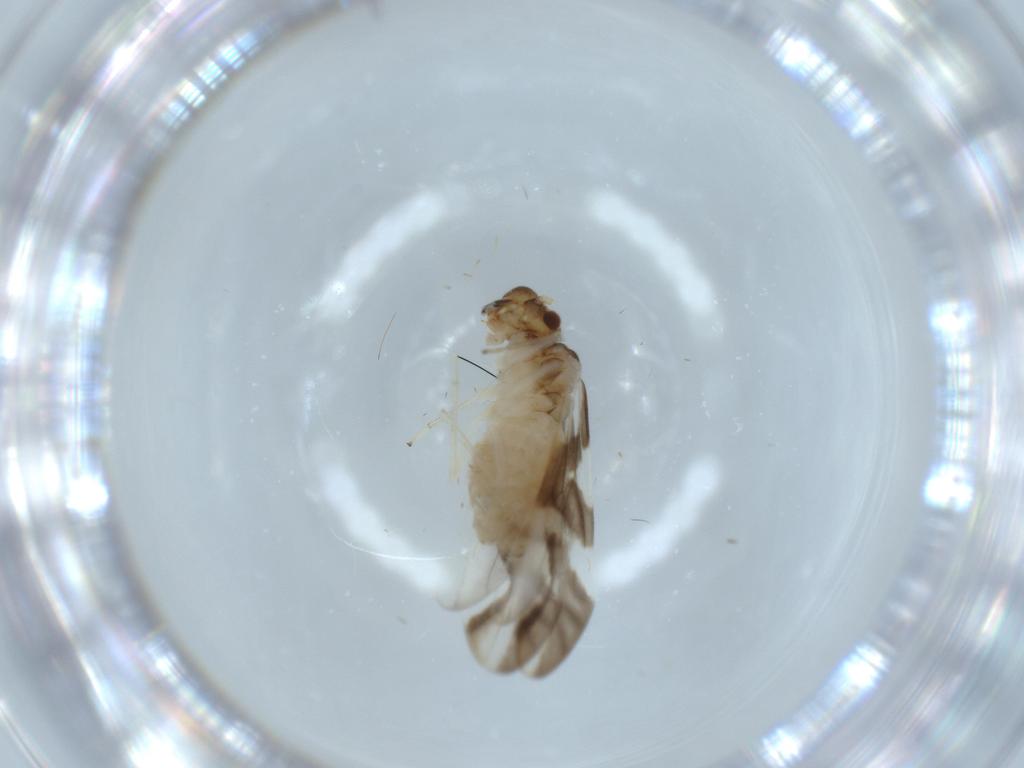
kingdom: Animalia
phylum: Arthropoda
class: Insecta
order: Psocodea
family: Caeciliusidae
